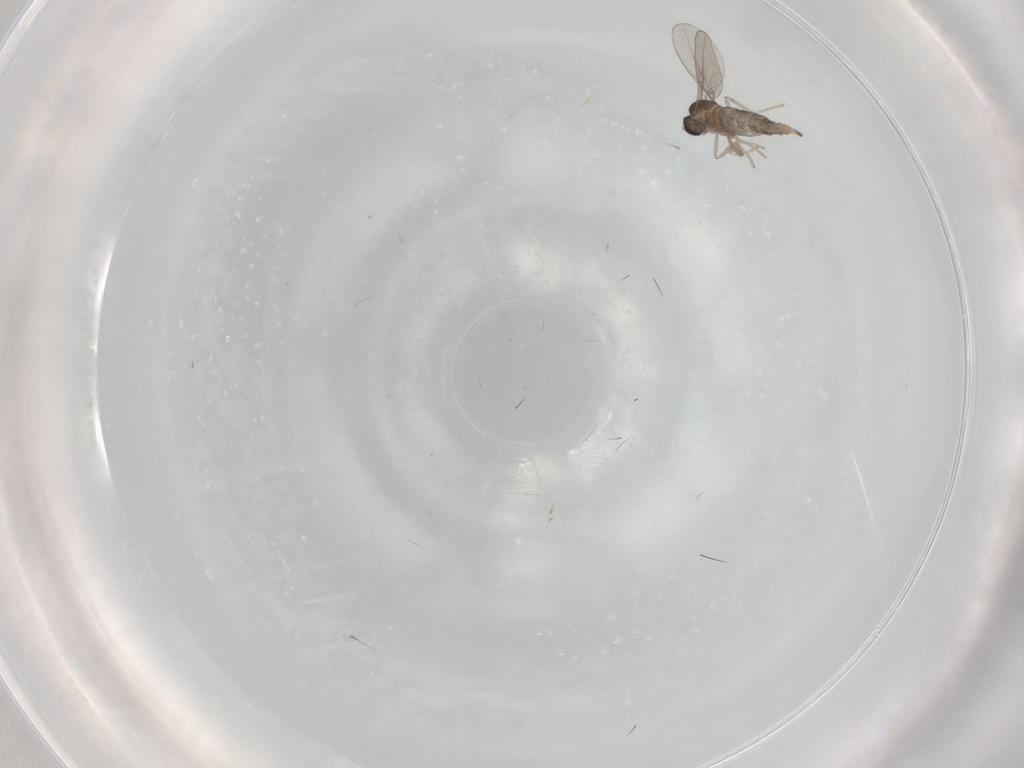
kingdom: Animalia
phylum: Arthropoda
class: Insecta
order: Diptera
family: Cecidomyiidae
